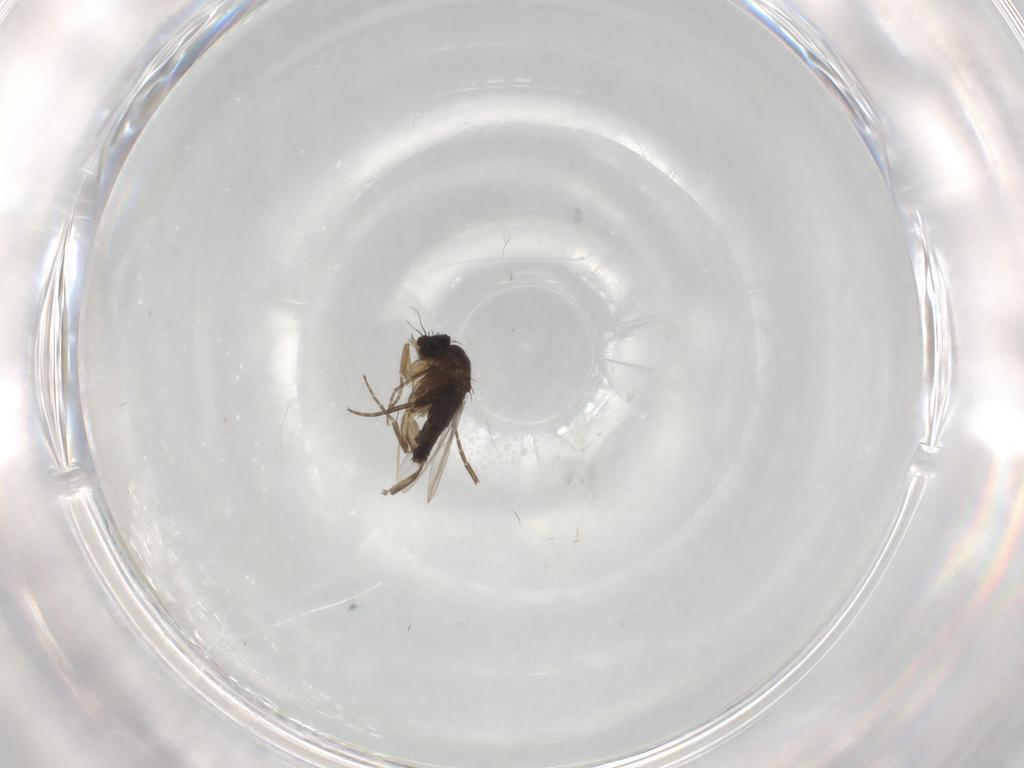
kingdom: Animalia
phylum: Arthropoda
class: Insecta
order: Diptera
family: Phoridae
